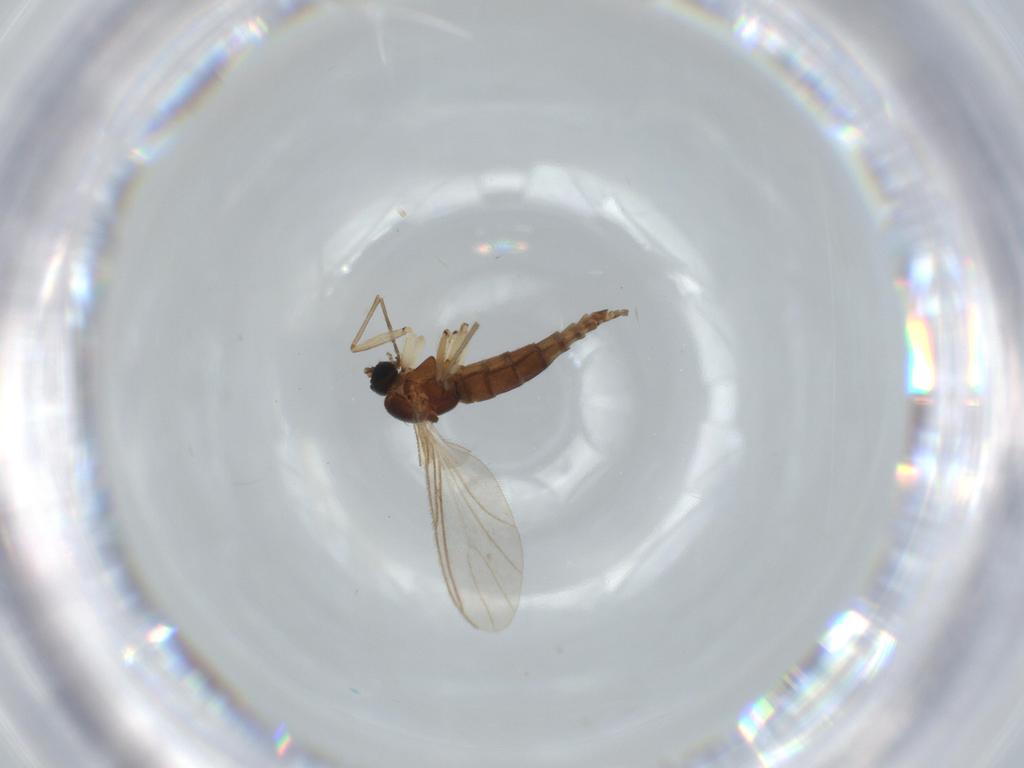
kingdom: Animalia
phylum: Arthropoda
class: Insecta
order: Diptera
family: Sciaridae
